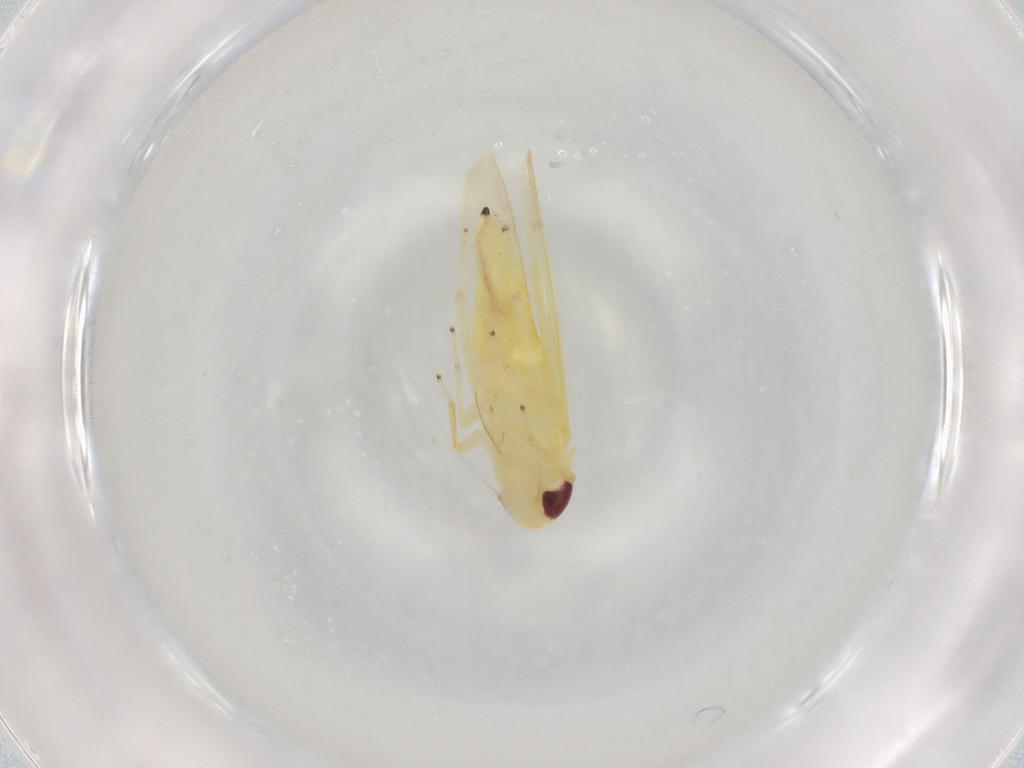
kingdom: Animalia
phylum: Arthropoda
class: Insecta
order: Hemiptera
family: Cicadellidae
